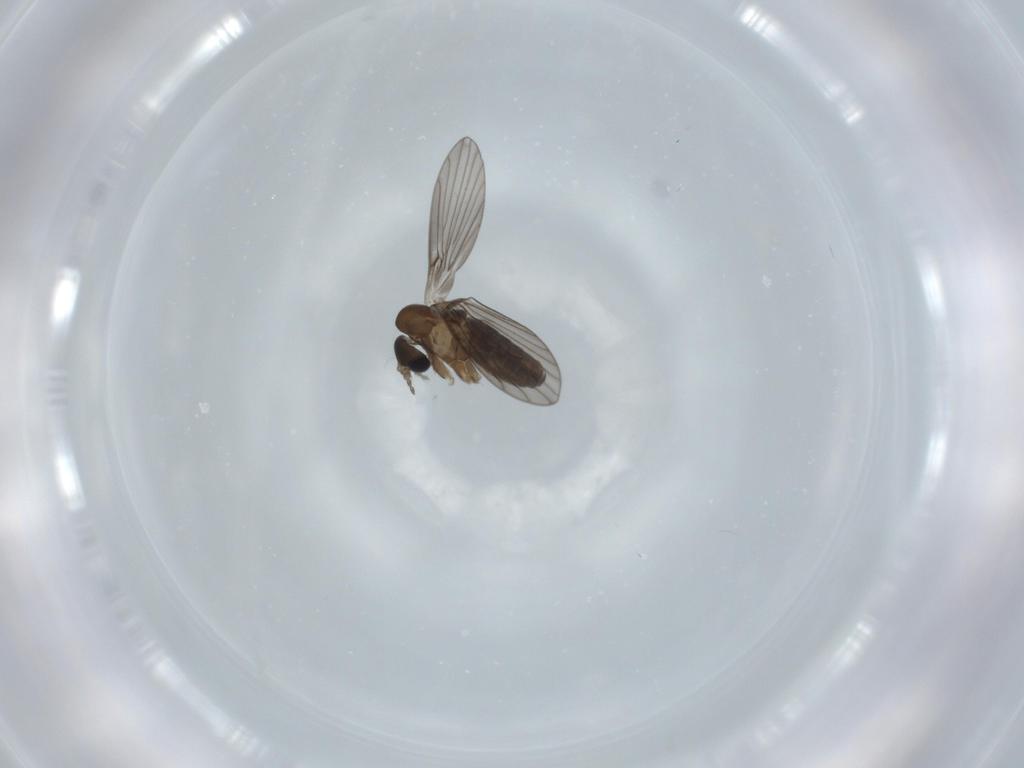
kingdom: Animalia
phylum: Arthropoda
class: Insecta
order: Diptera
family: Psychodidae
